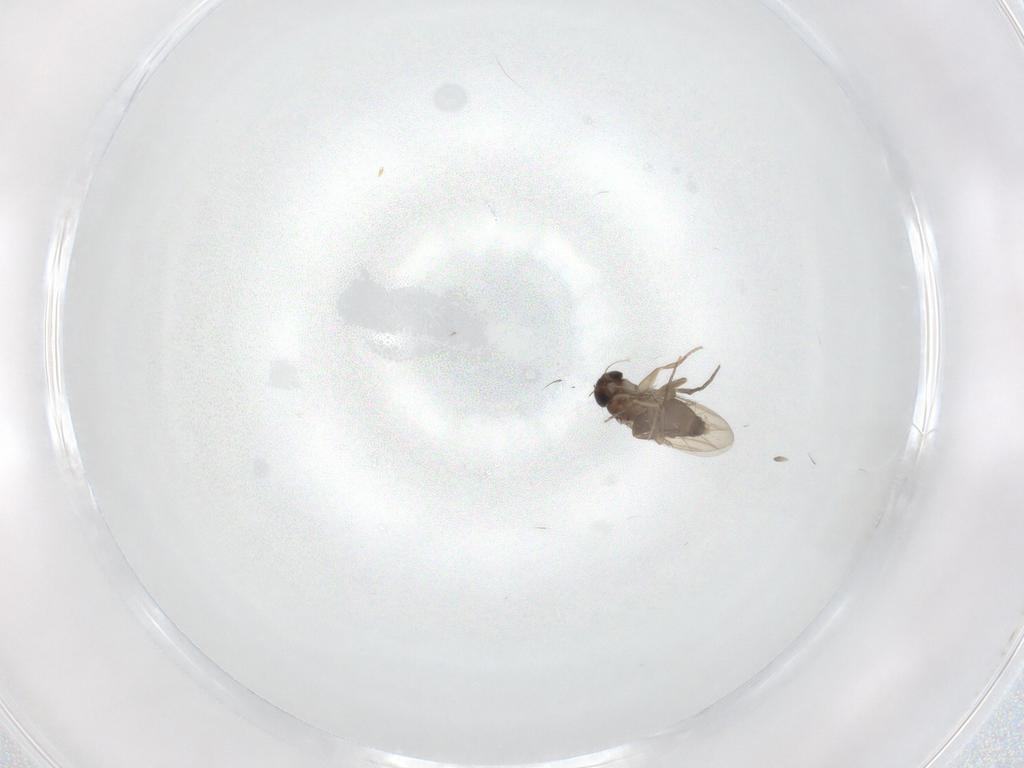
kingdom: Animalia
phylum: Arthropoda
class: Insecta
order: Diptera
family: Phoridae
